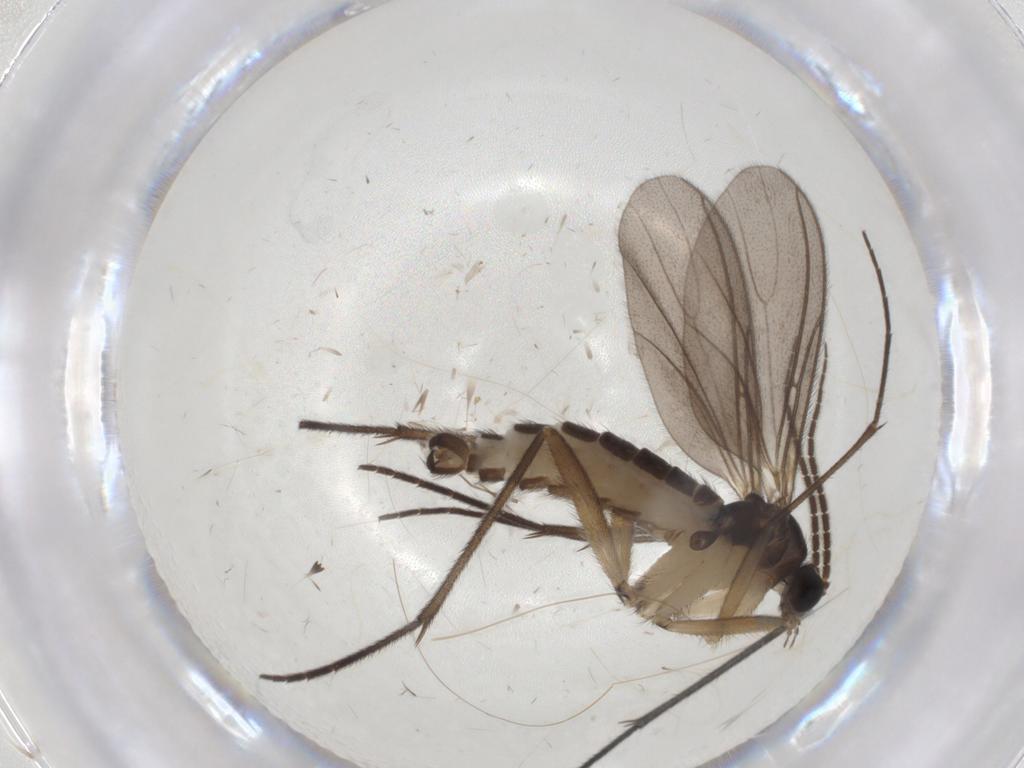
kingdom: Animalia
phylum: Arthropoda
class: Insecta
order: Diptera
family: Sciaridae
